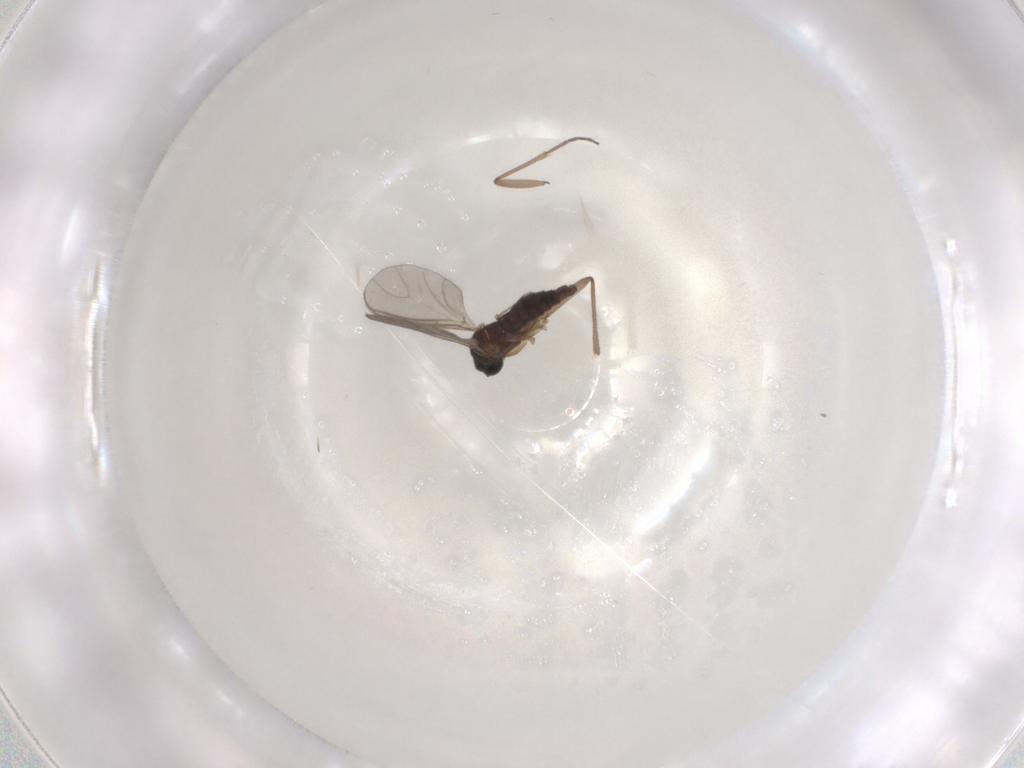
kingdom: Animalia
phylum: Arthropoda
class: Insecta
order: Diptera
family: Sciaridae
